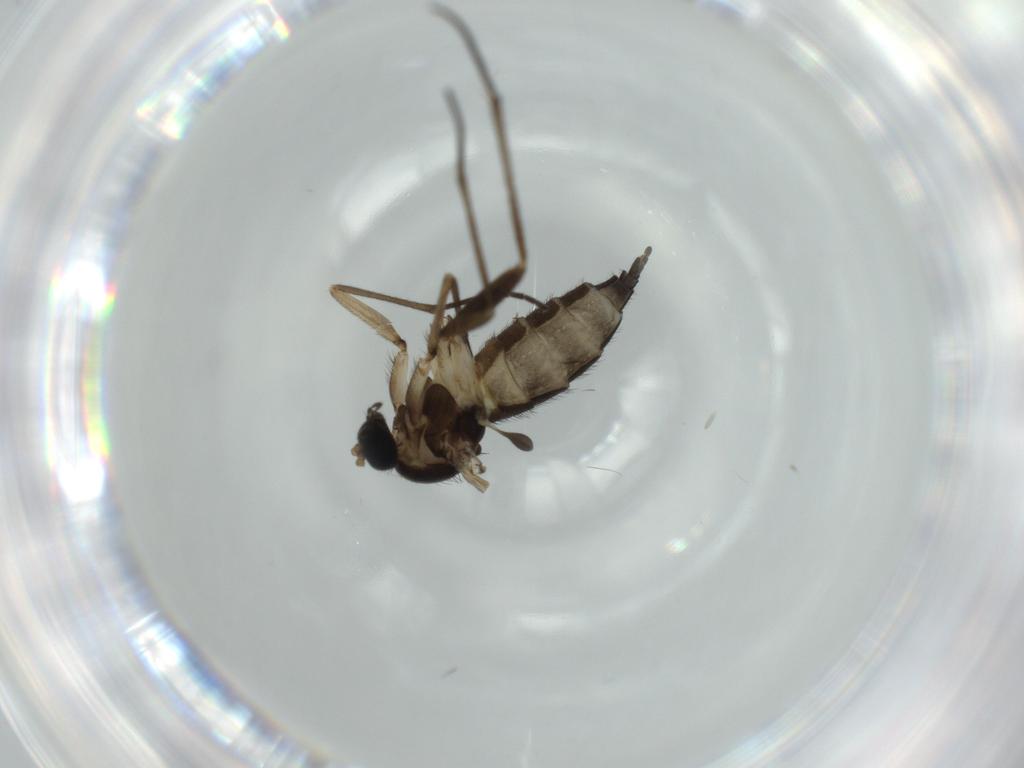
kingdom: Animalia
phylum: Arthropoda
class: Insecta
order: Diptera
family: Sciaridae
